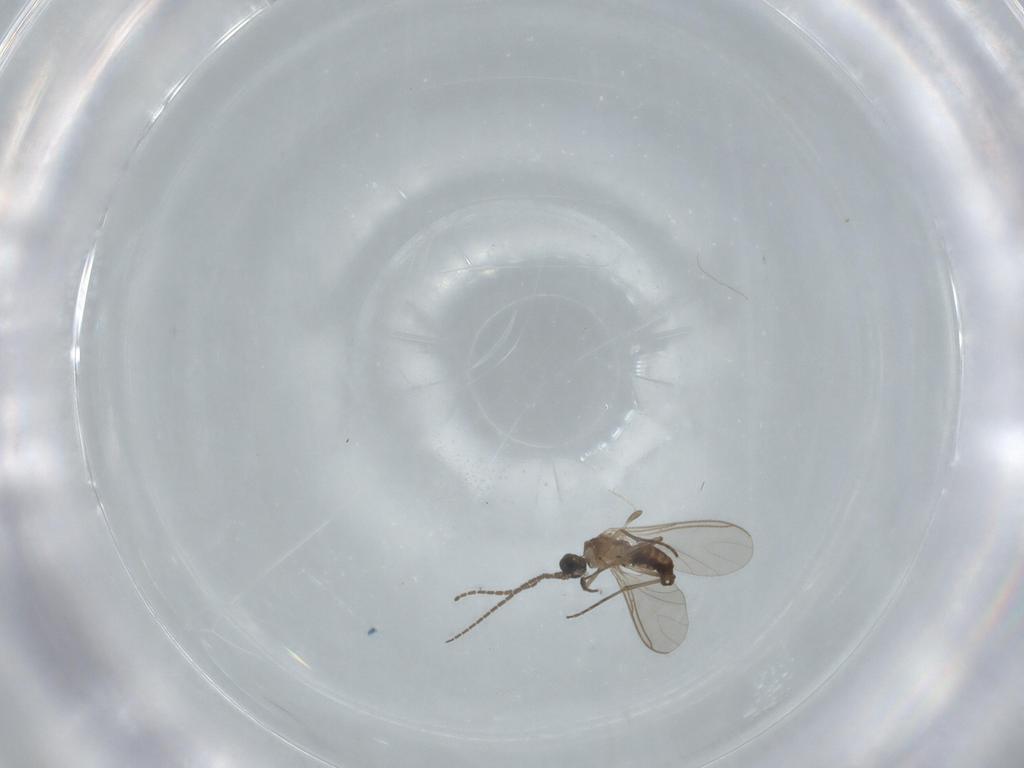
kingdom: Animalia
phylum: Arthropoda
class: Insecta
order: Diptera
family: Sciaridae
